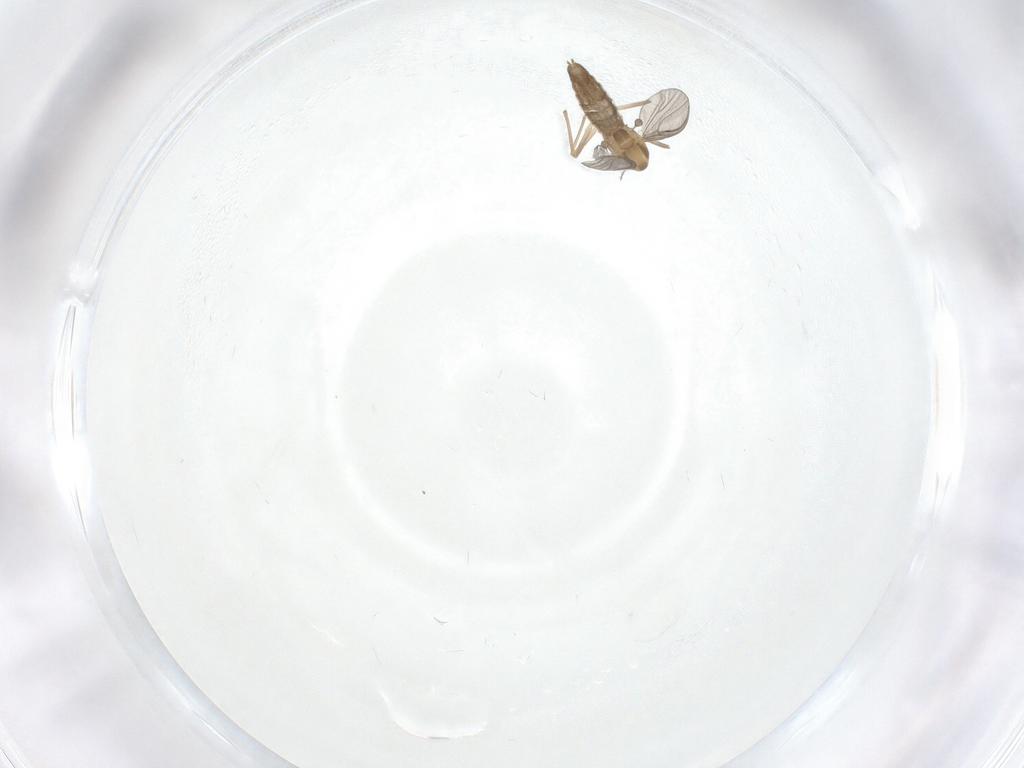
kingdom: Animalia
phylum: Arthropoda
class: Insecta
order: Diptera
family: Chironomidae
